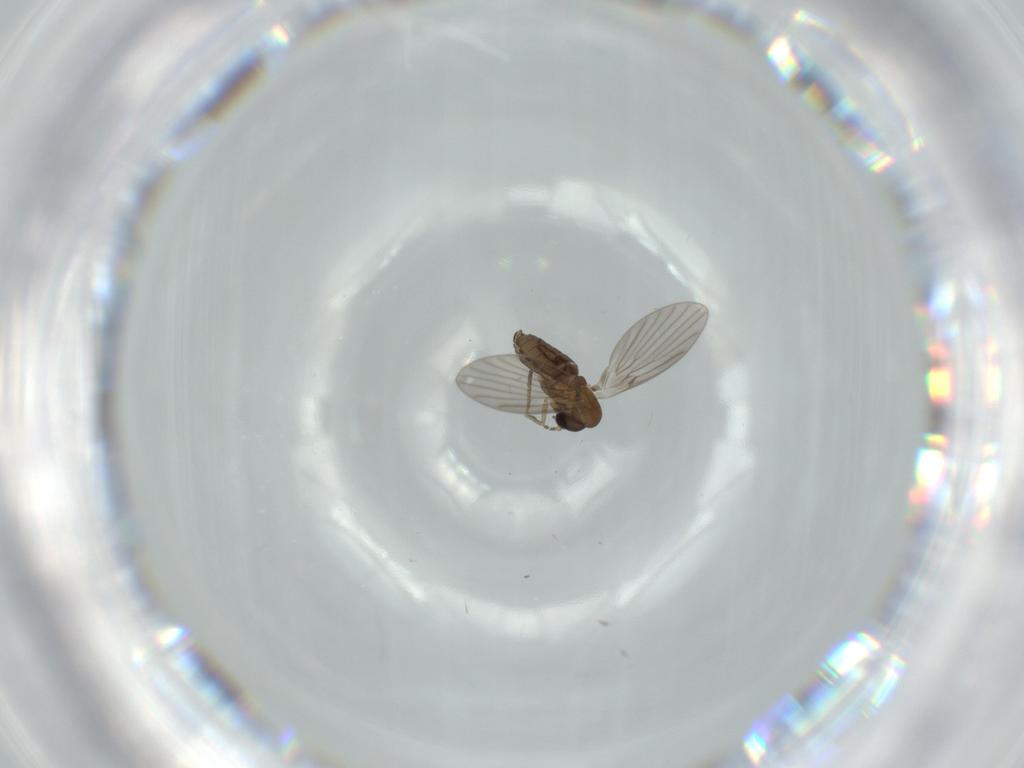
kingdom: Animalia
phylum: Arthropoda
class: Insecta
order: Diptera
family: Psychodidae
